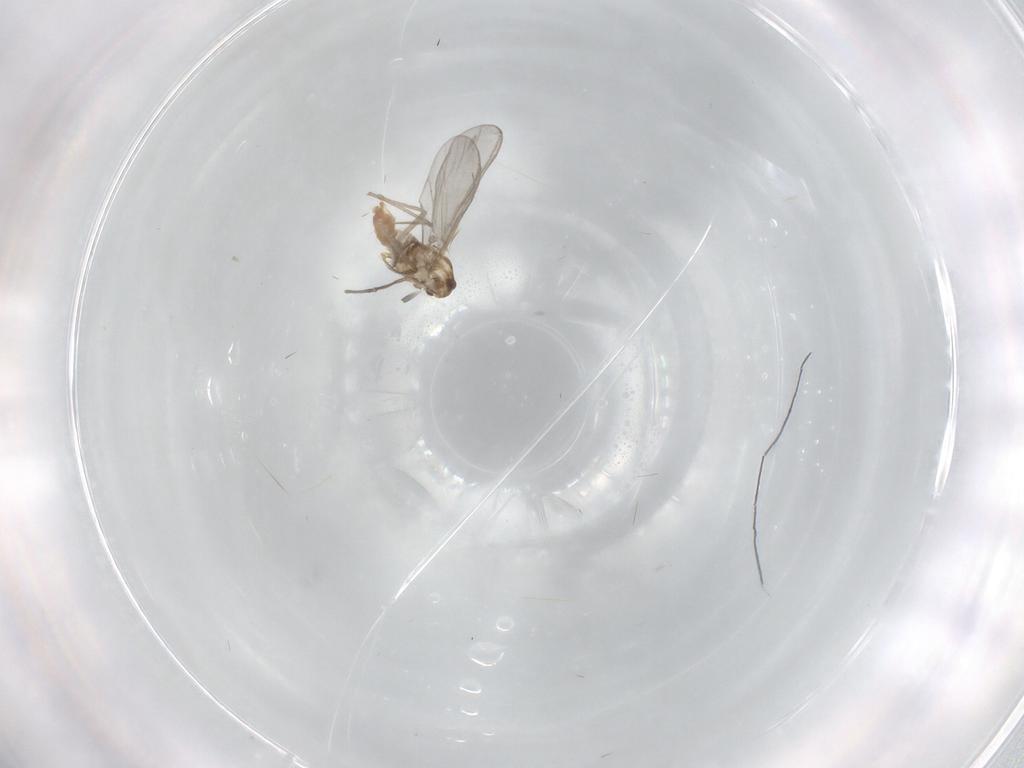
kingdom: Animalia
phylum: Arthropoda
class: Insecta
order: Diptera
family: Chironomidae
